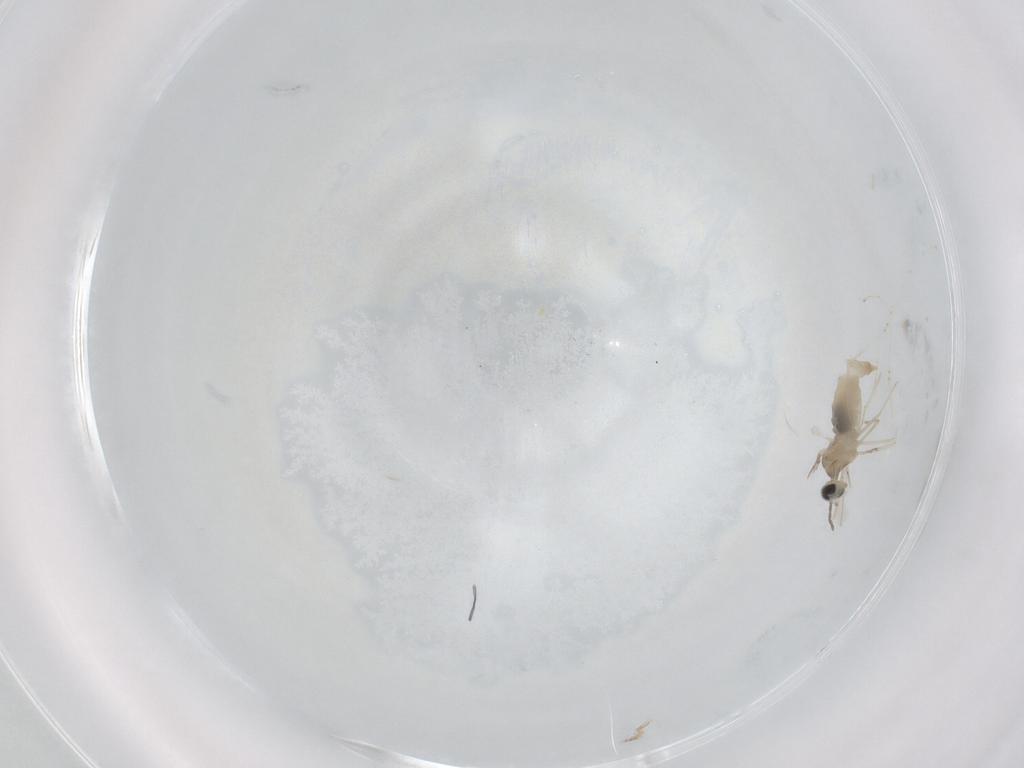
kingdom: Animalia
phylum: Arthropoda
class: Insecta
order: Diptera
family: Cecidomyiidae
